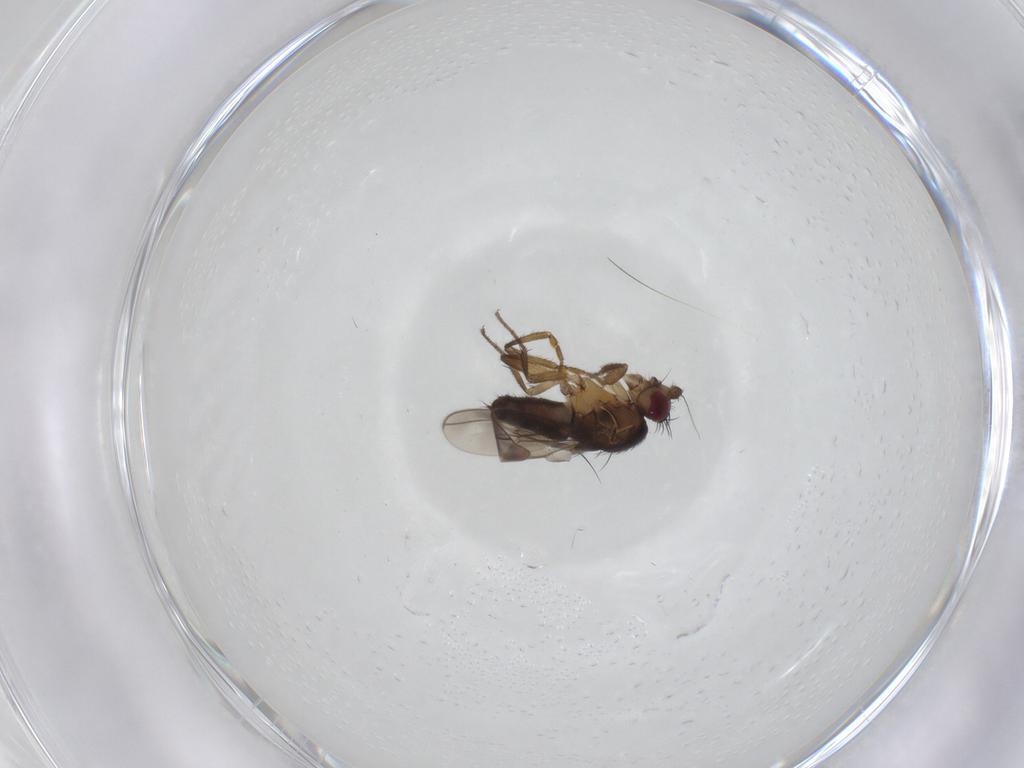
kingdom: Animalia
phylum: Arthropoda
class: Insecta
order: Diptera
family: Sphaeroceridae
